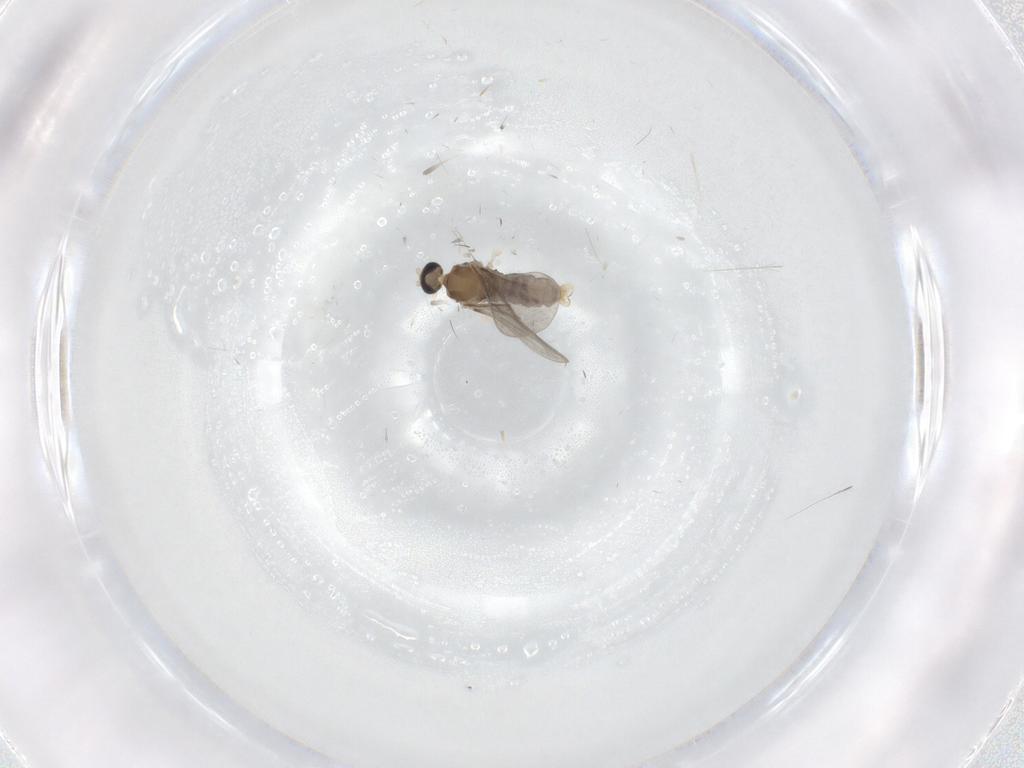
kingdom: Animalia
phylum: Arthropoda
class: Insecta
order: Diptera
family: Cecidomyiidae
